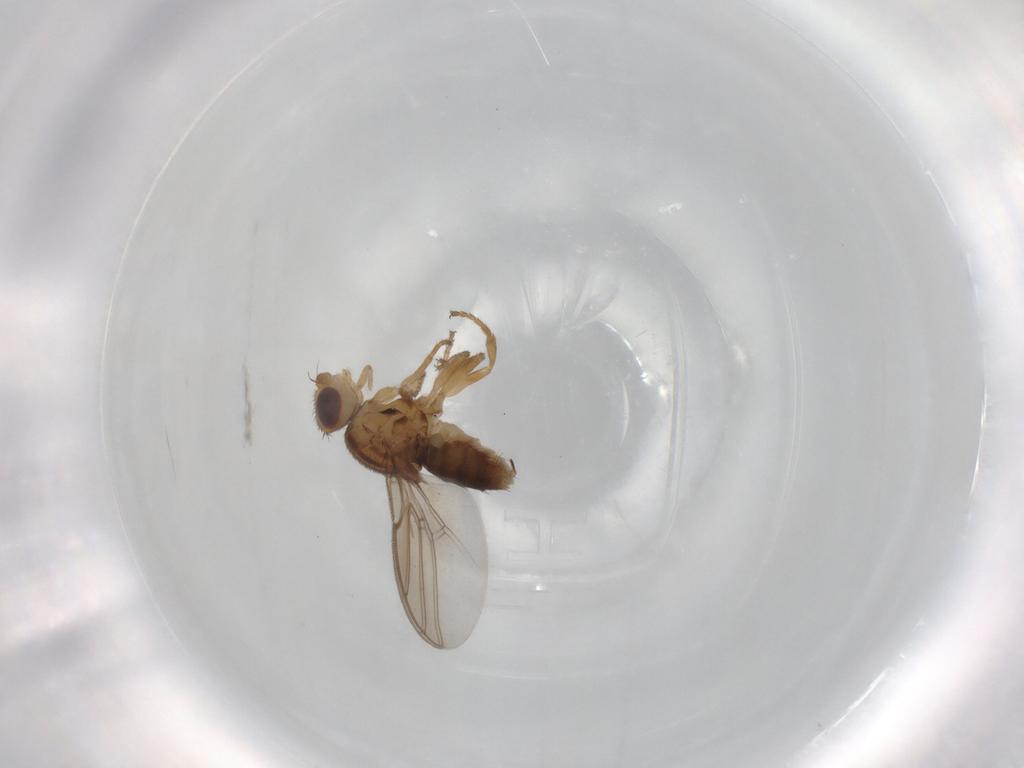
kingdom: Animalia
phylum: Arthropoda
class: Insecta
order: Diptera
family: Chloropidae
